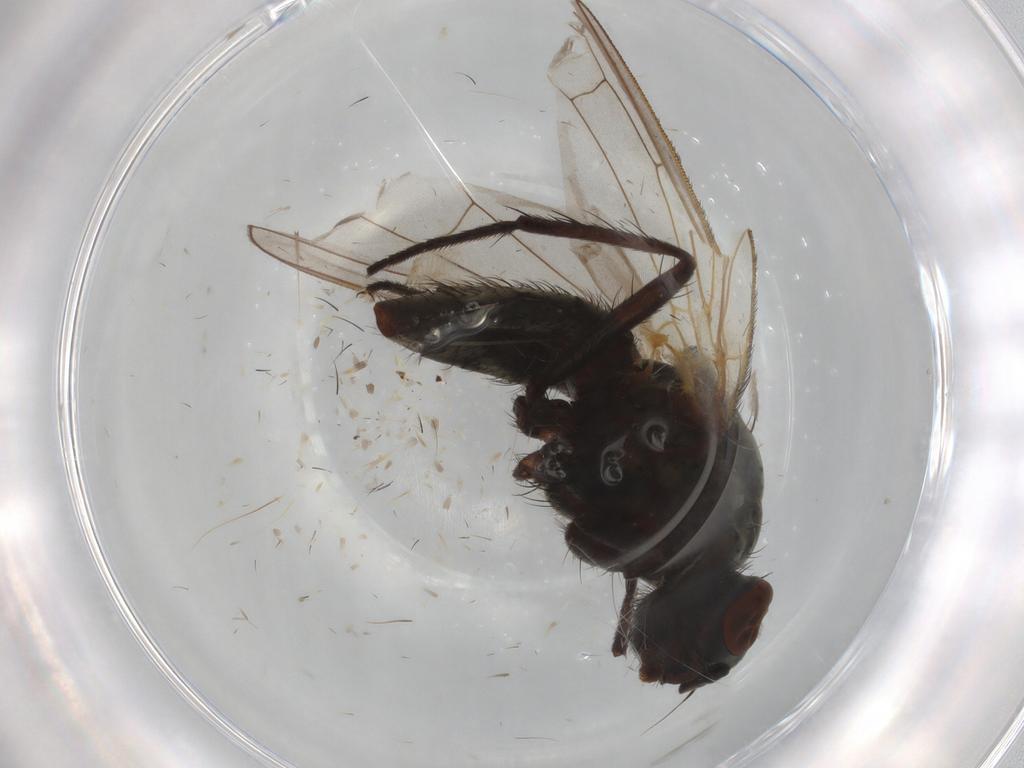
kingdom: Animalia
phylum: Arthropoda
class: Insecta
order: Diptera
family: Anthomyiidae
